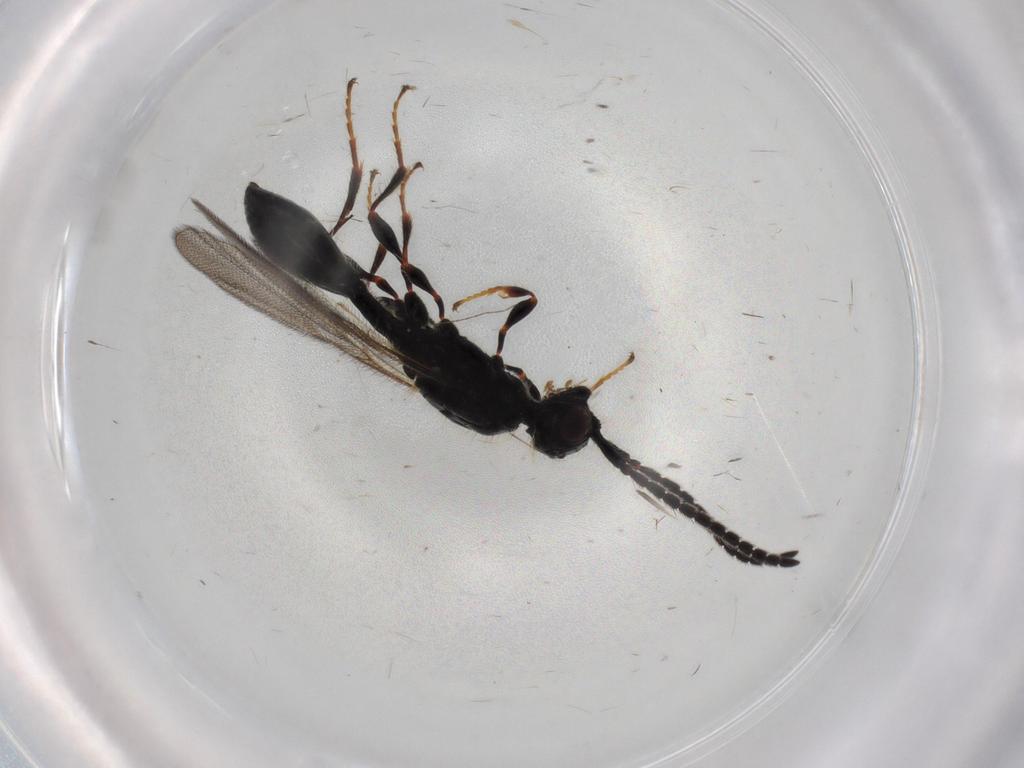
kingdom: Animalia
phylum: Arthropoda
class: Insecta
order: Hymenoptera
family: Diapriidae
